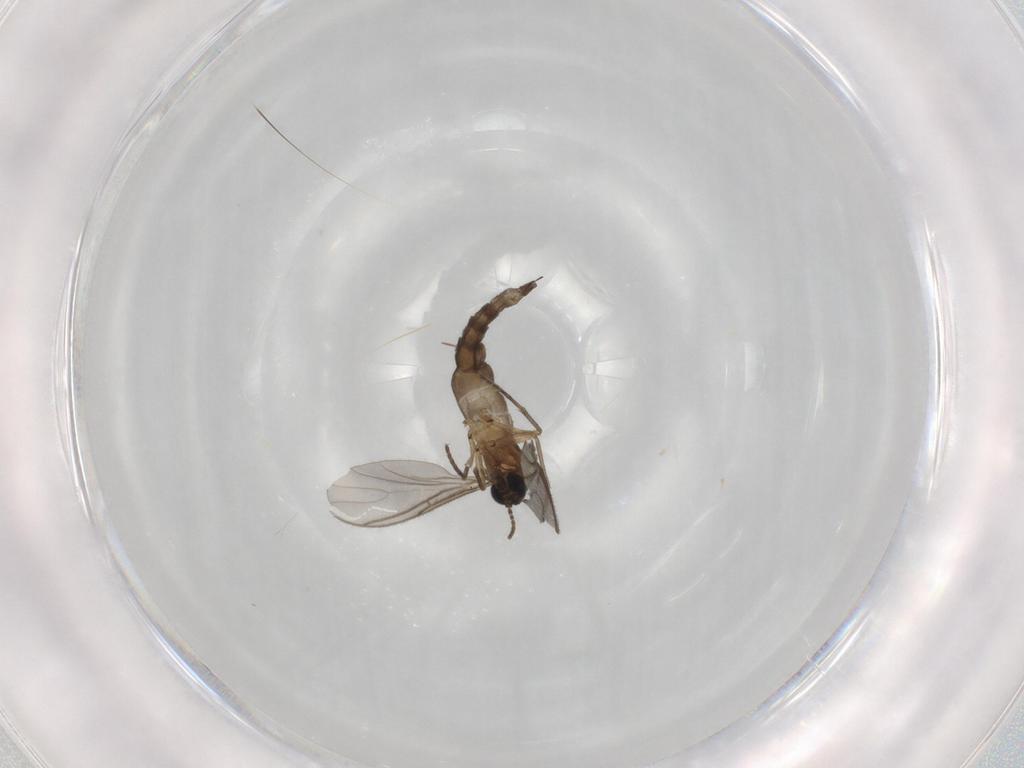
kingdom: Animalia
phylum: Arthropoda
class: Insecta
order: Diptera
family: Sciaridae
